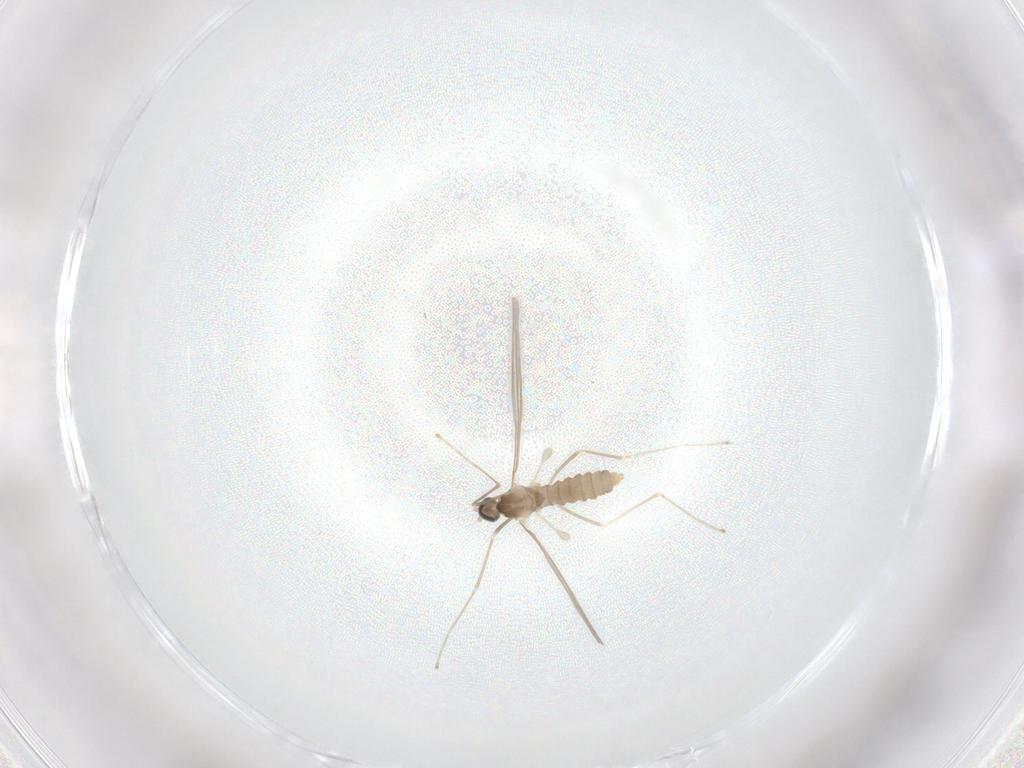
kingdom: Animalia
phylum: Arthropoda
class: Insecta
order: Diptera
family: Cecidomyiidae
